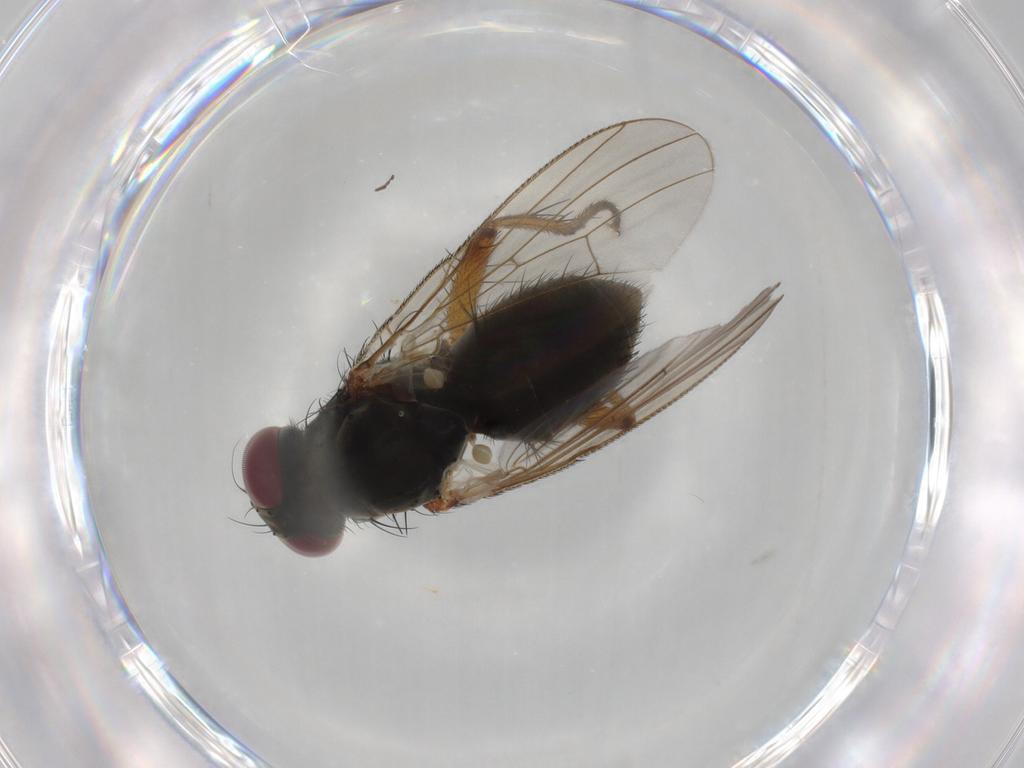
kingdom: Animalia
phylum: Arthropoda
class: Insecta
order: Diptera
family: Muscidae
